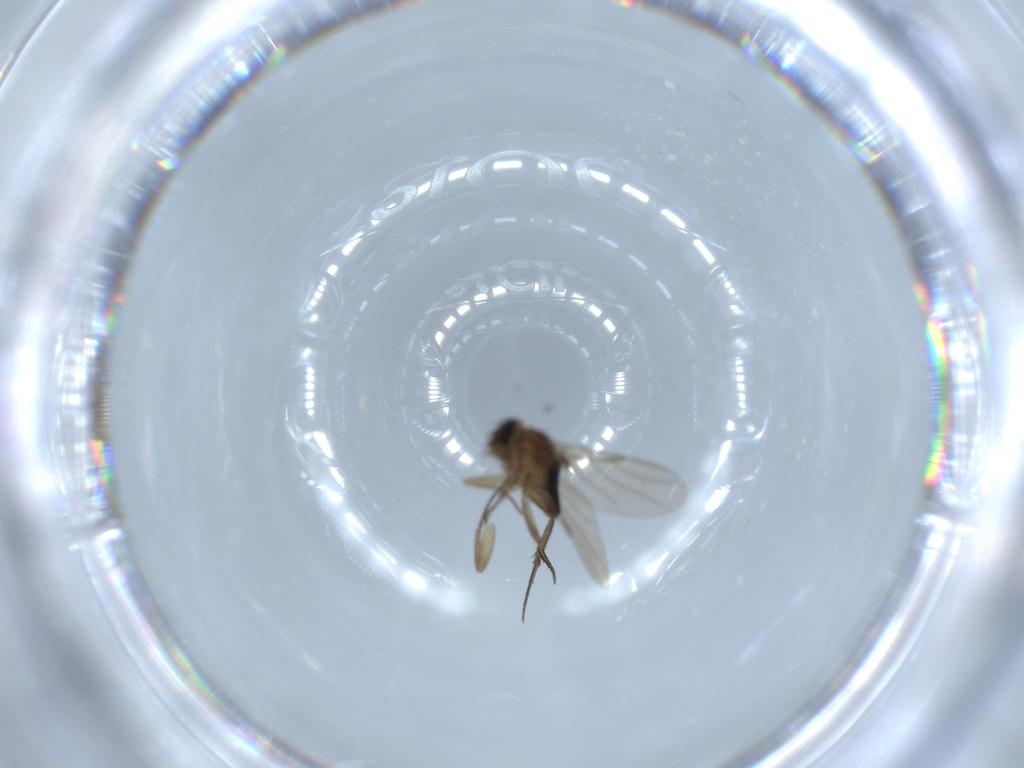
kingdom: Animalia
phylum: Arthropoda
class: Insecta
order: Diptera
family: Phoridae
